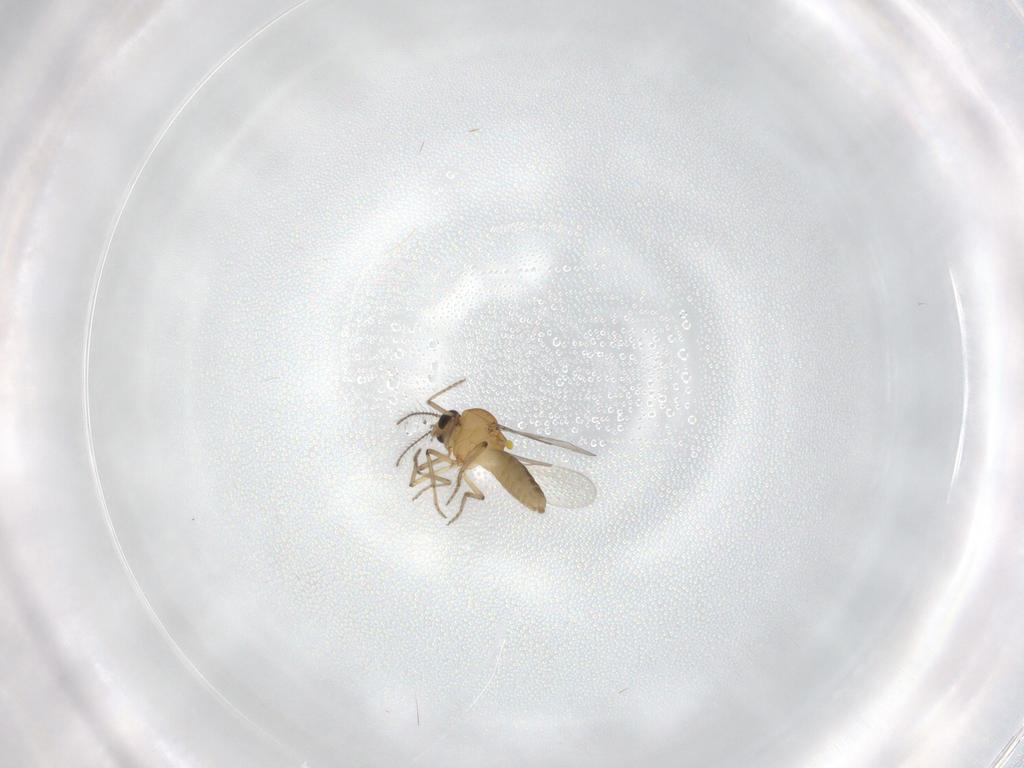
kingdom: Animalia
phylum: Arthropoda
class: Insecta
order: Diptera
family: Ceratopogonidae
